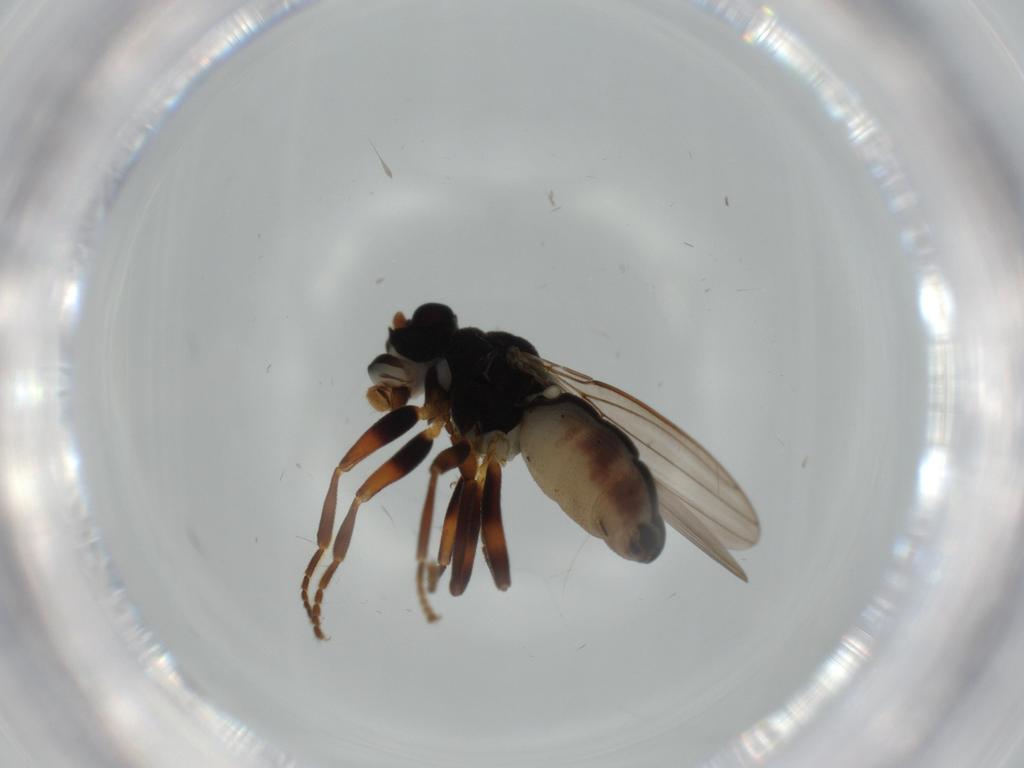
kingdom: Animalia
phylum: Arthropoda
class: Insecta
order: Diptera
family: Sphaeroceridae
